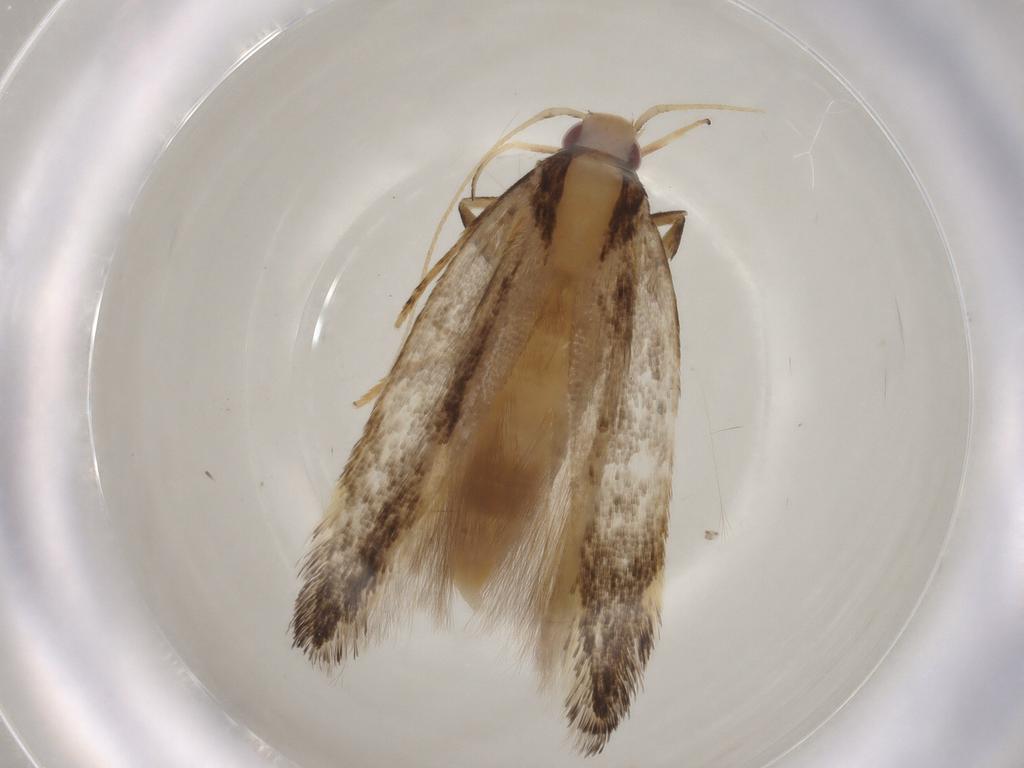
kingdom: Animalia
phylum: Arthropoda
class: Insecta
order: Lepidoptera
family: Cosmopterigidae
